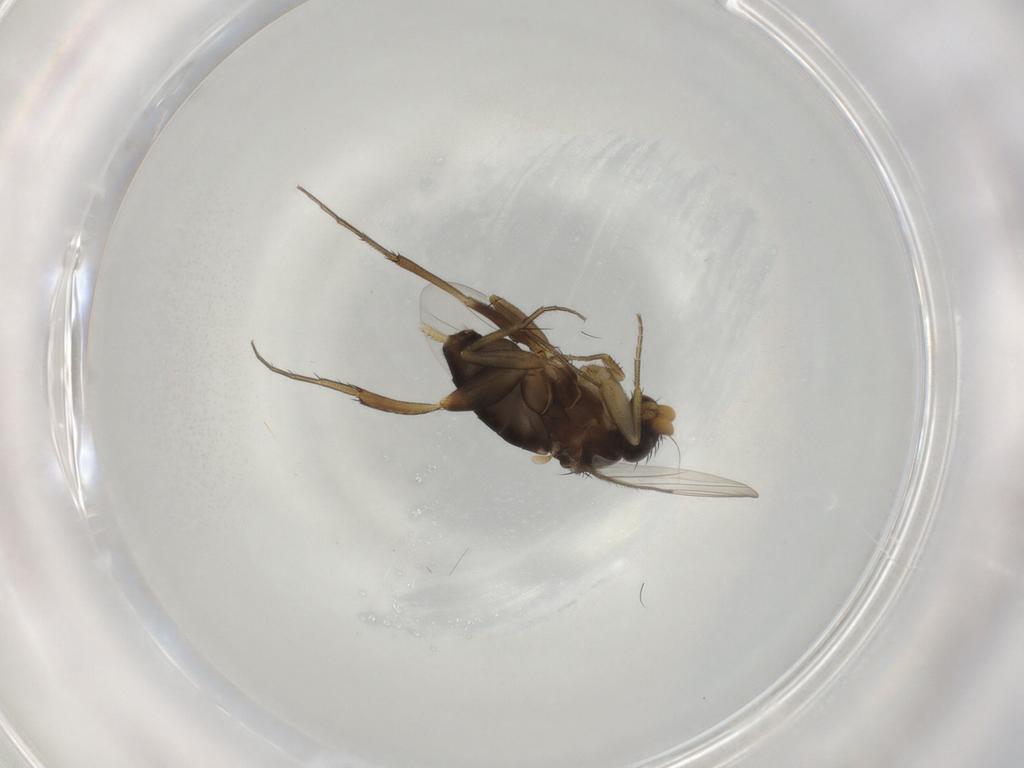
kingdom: Animalia
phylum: Arthropoda
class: Insecta
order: Diptera
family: Phoridae
